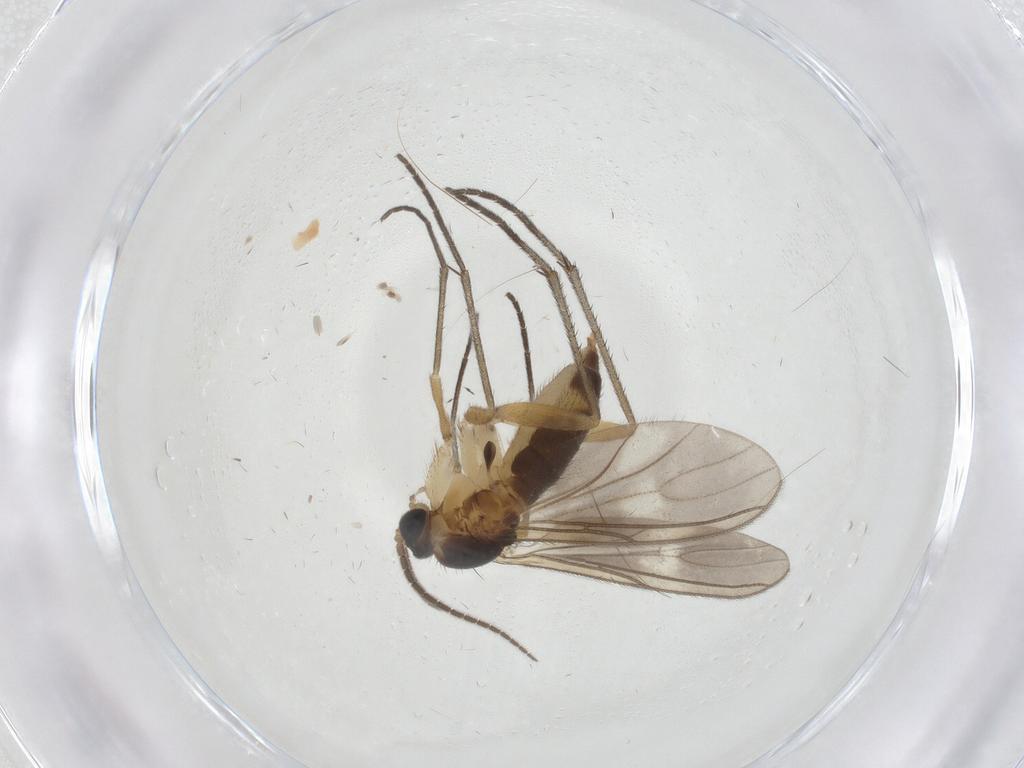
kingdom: Animalia
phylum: Arthropoda
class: Insecta
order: Diptera
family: Sciaridae
